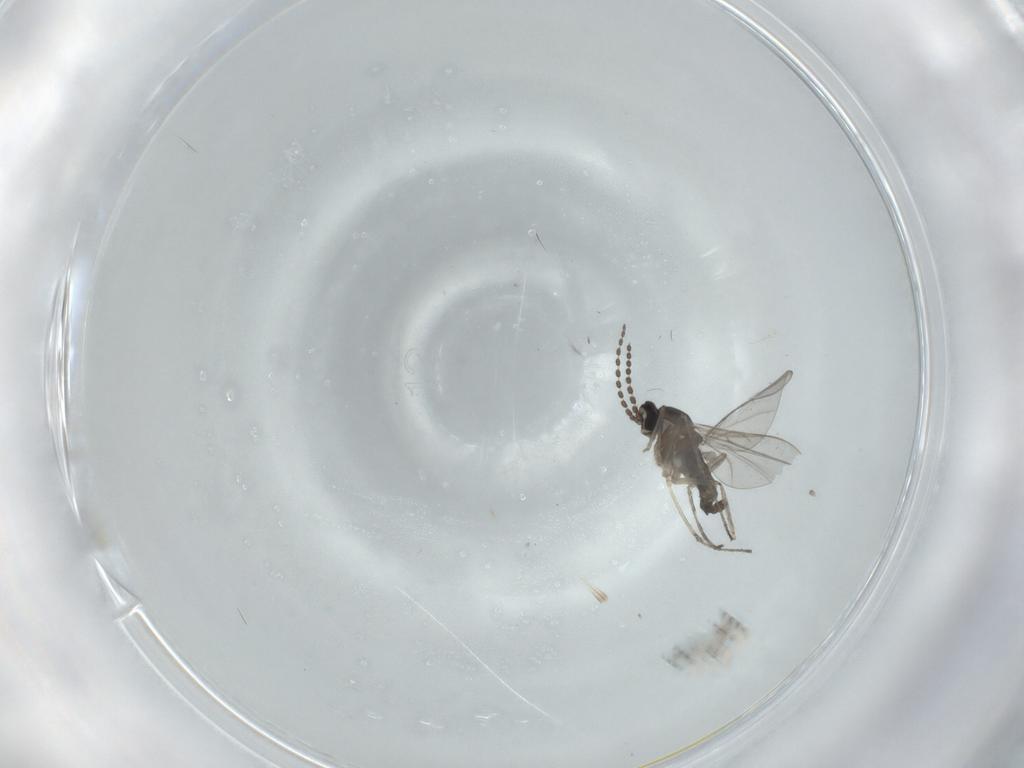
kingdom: Animalia
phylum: Arthropoda
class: Insecta
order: Diptera
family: Cecidomyiidae
